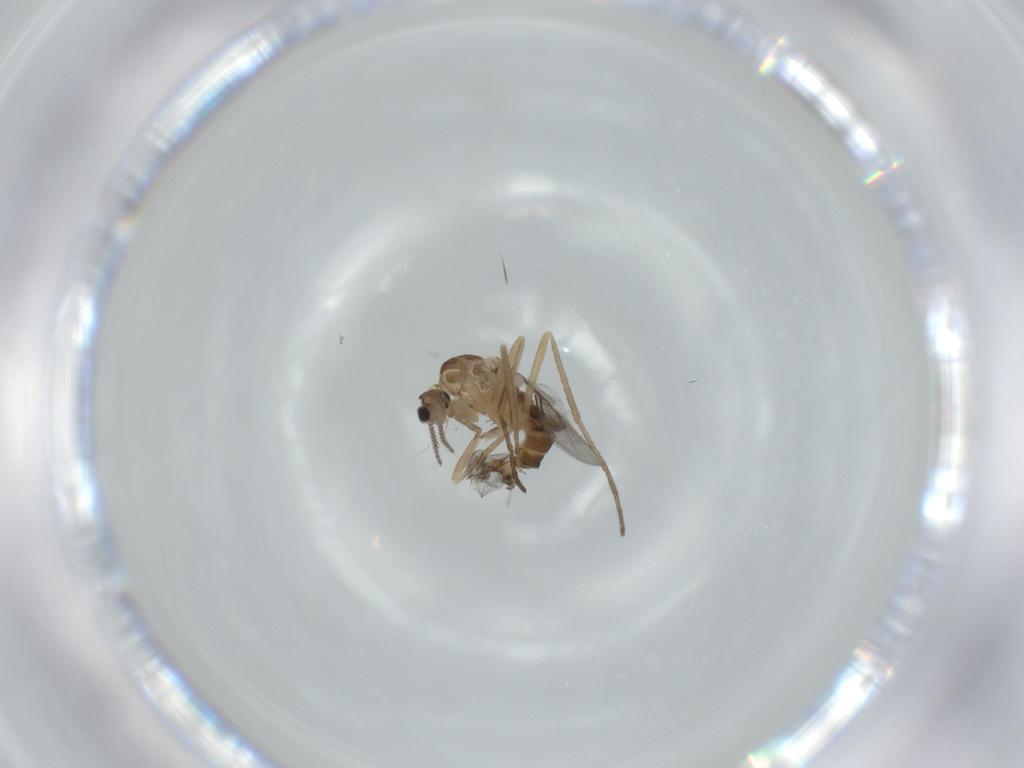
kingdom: Animalia
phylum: Arthropoda
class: Insecta
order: Diptera
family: Cecidomyiidae
